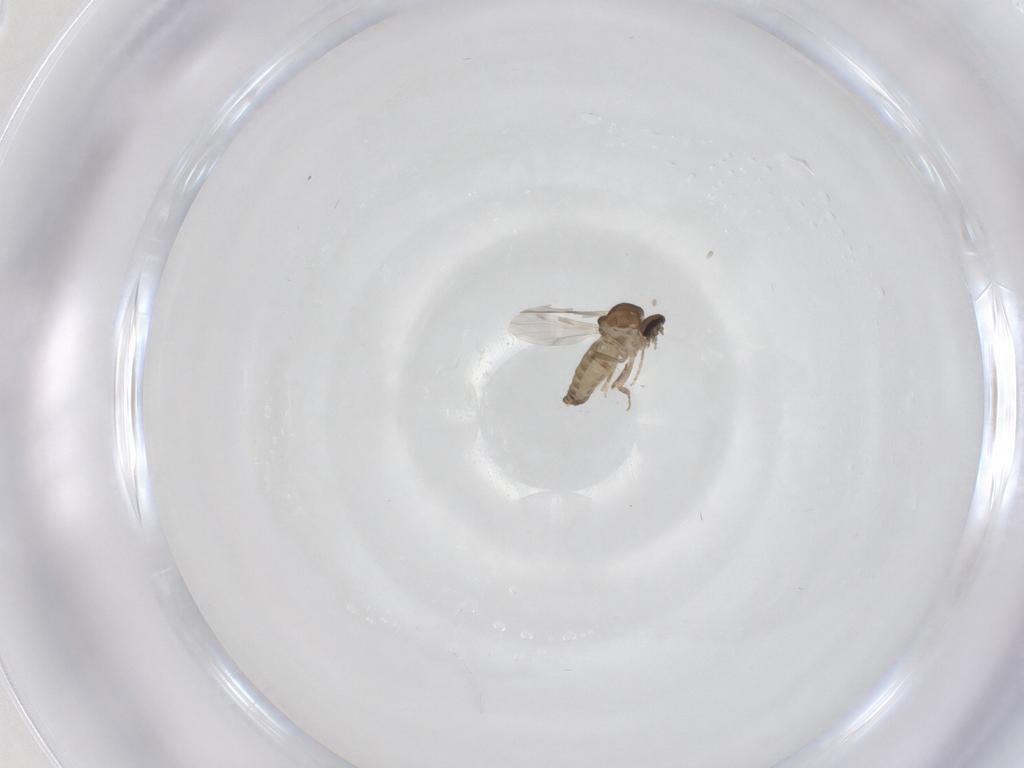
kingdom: Animalia
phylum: Arthropoda
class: Insecta
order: Diptera
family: Ceratopogonidae
